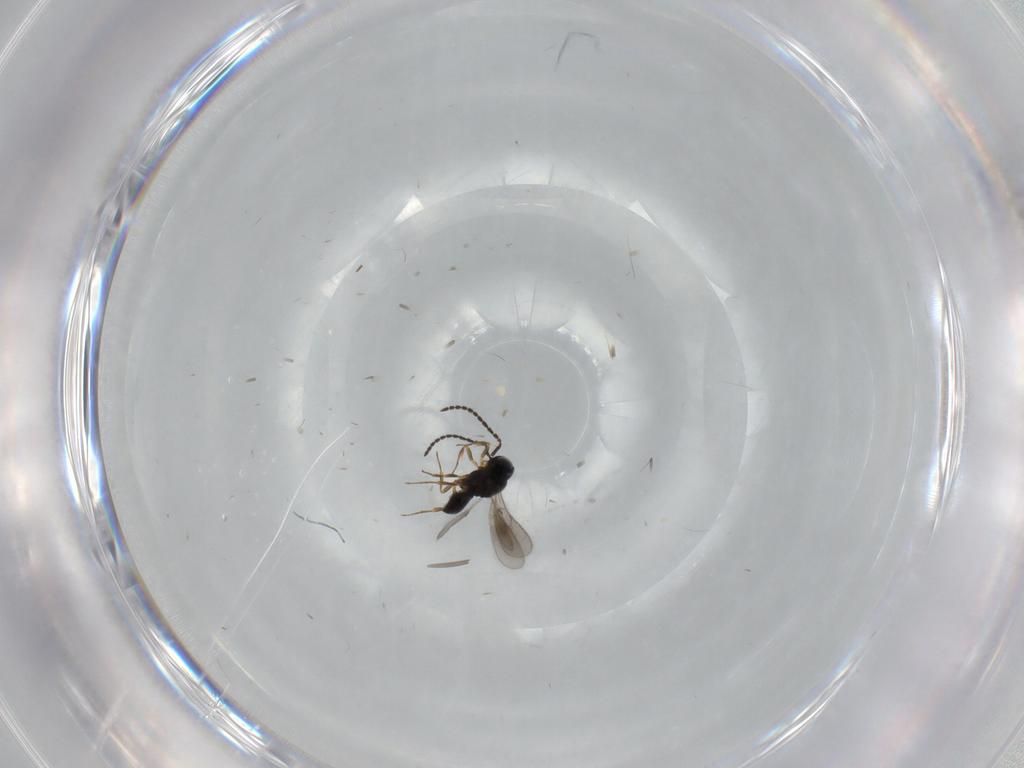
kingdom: Animalia
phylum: Arthropoda
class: Insecta
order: Hymenoptera
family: Scelionidae
